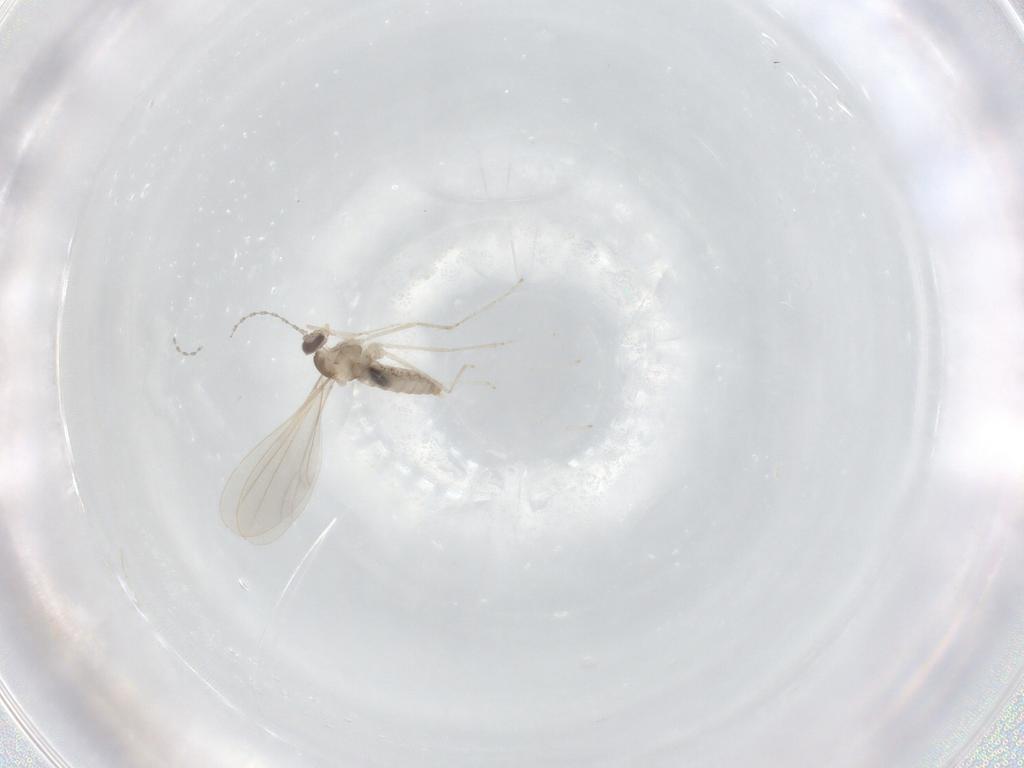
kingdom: Animalia
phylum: Arthropoda
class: Insecta
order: Diptera
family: Cecidomyiidae
